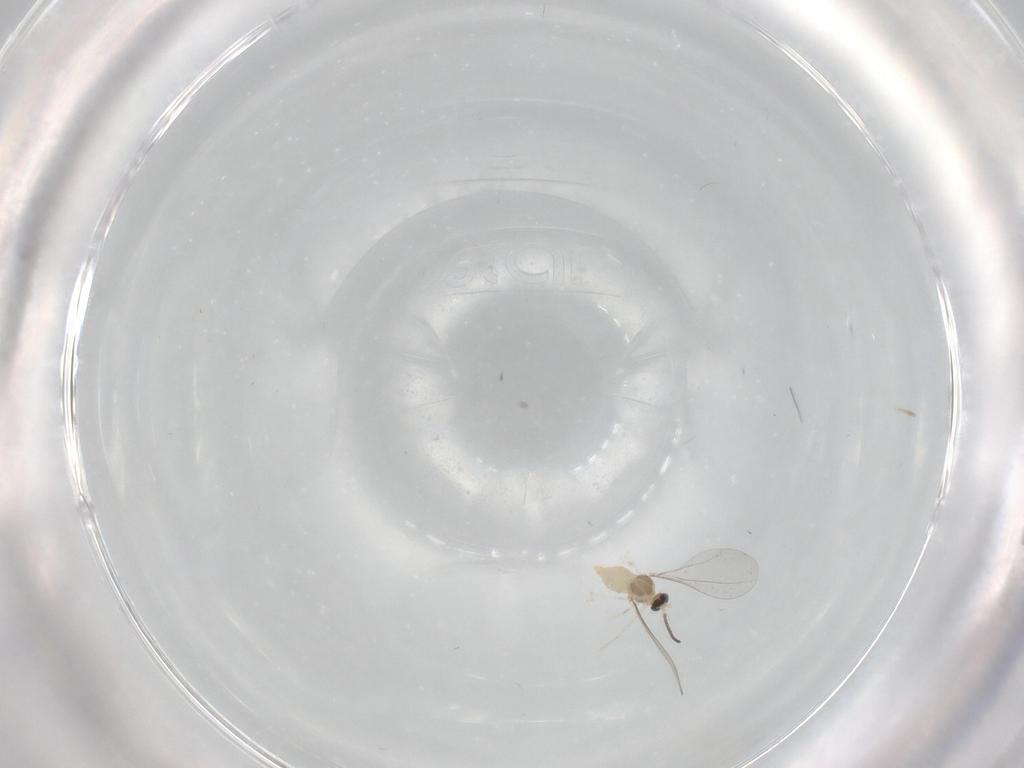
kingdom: Animalia
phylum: Arthropoda
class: Insecta
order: Diptera
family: Cecidomyiidae
